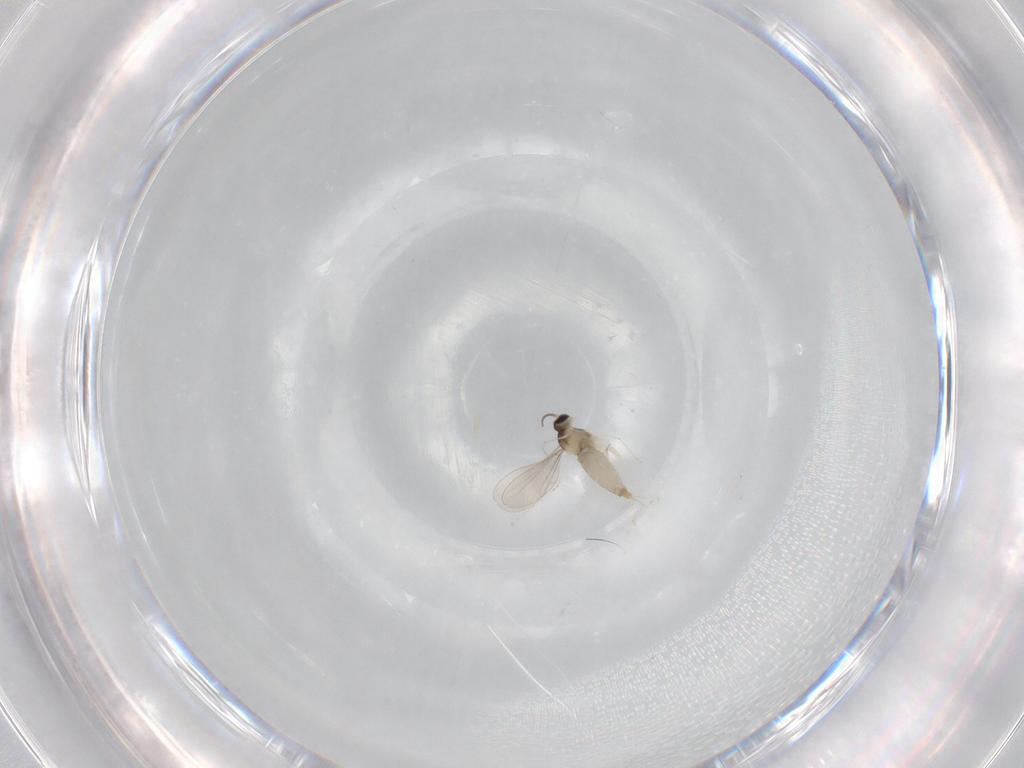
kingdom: Animalia
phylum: Arthropoda
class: Insecta
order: Diptera
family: Sciaridae
